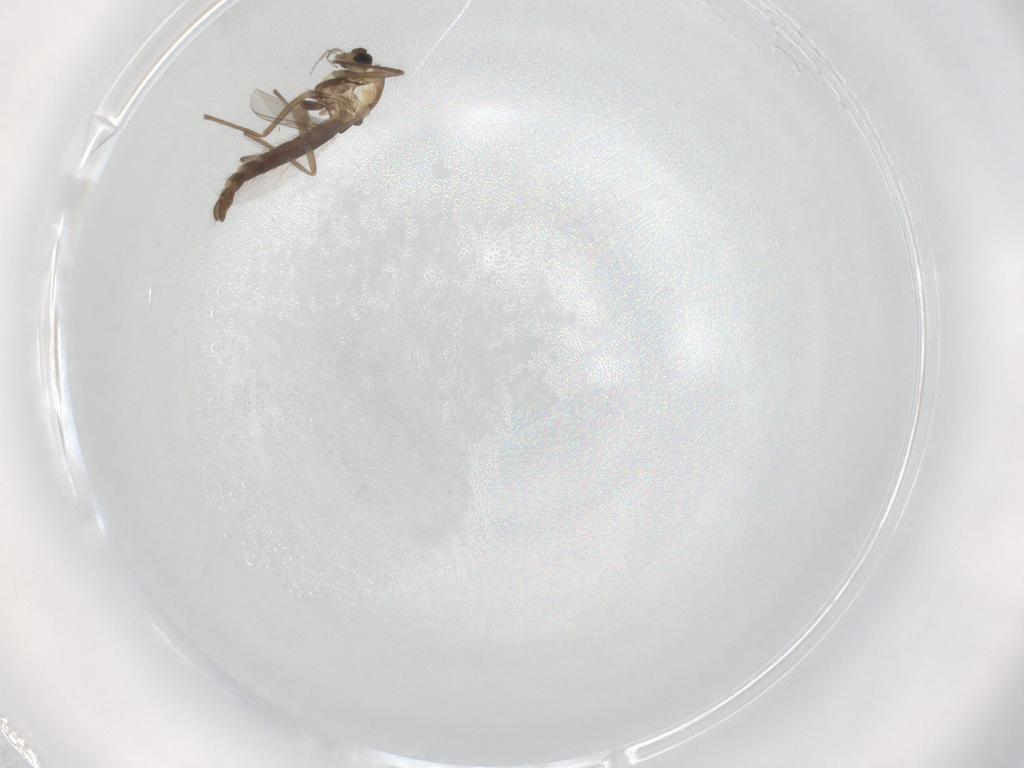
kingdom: Animalia
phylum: Arthropoda
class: Insecta
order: Diptera
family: Chironomidae
